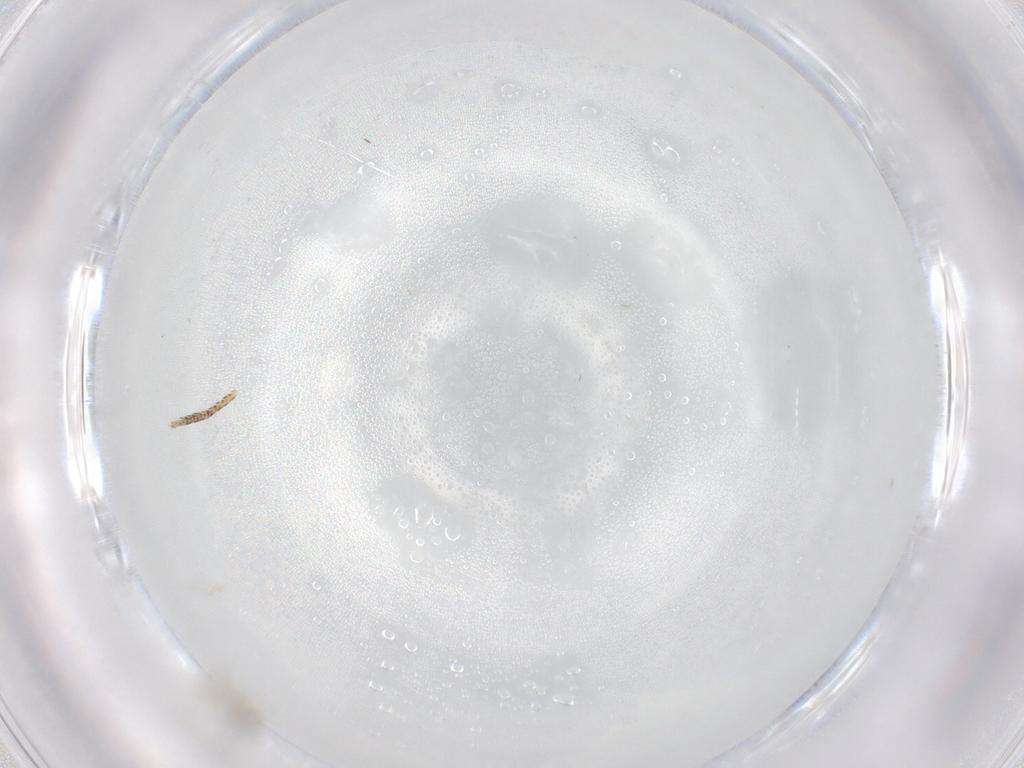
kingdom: Animalia
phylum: Arthropoda
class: Insecta
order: Diptera
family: Cecidomyiidae
